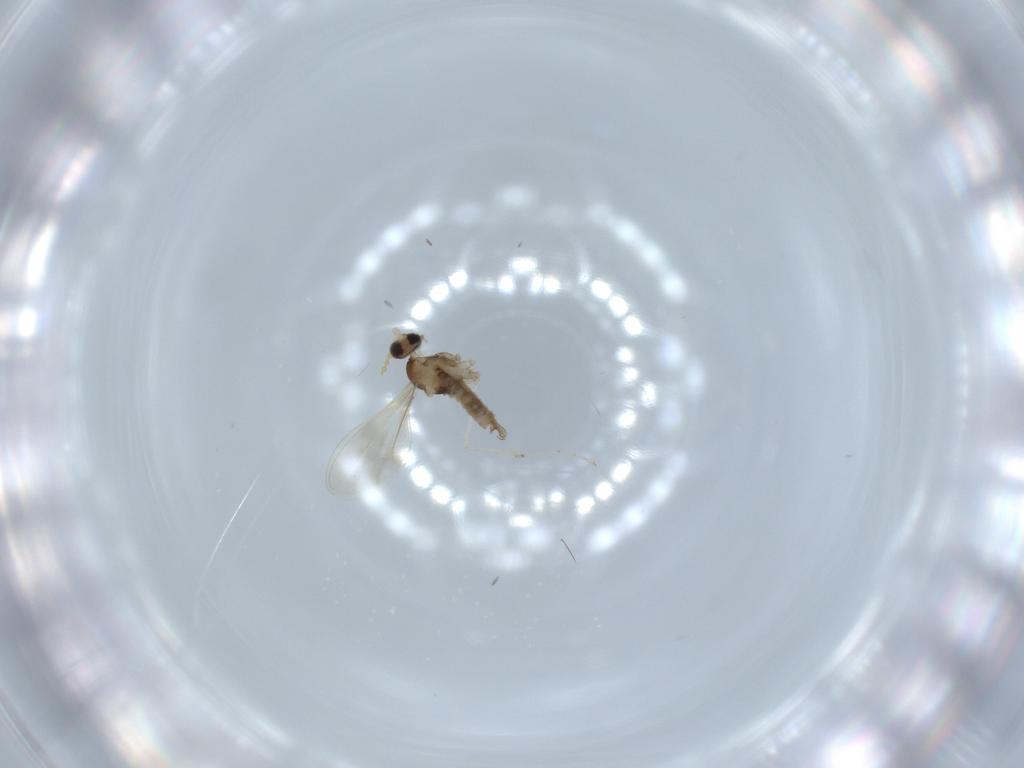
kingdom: Animalia
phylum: Arthropoda
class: Insecta
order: Diptera
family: Cecidomyiidae
